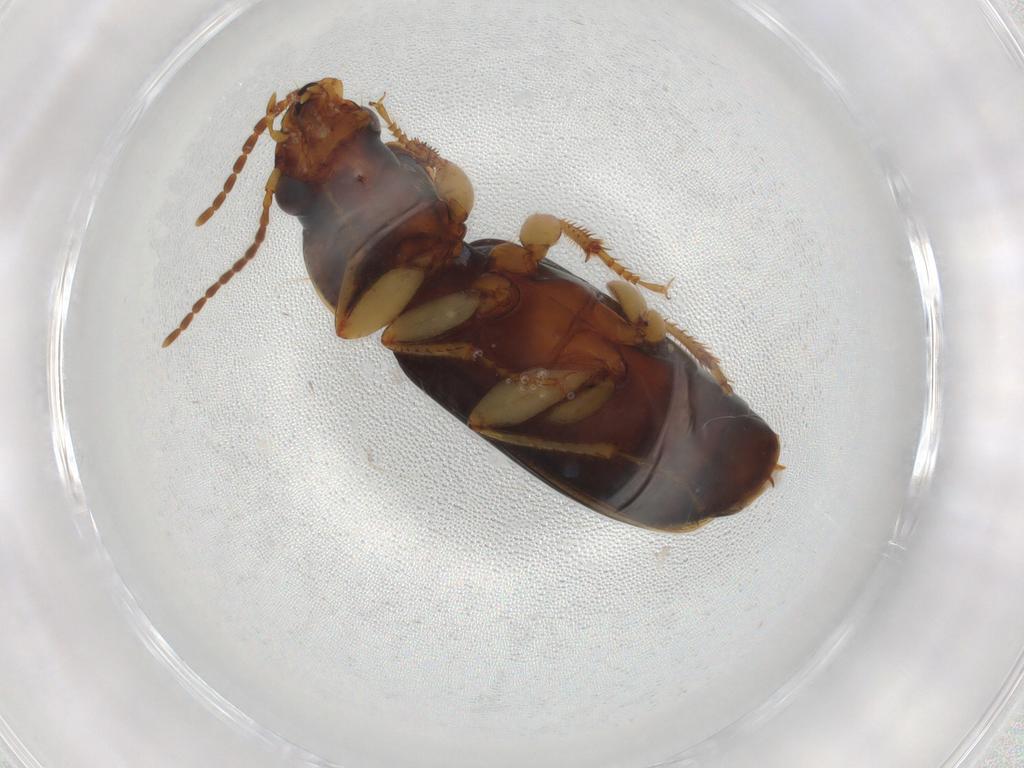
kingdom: Animalia
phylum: Arthropoda
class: Insecta
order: Coleoptera
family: Carabidae
